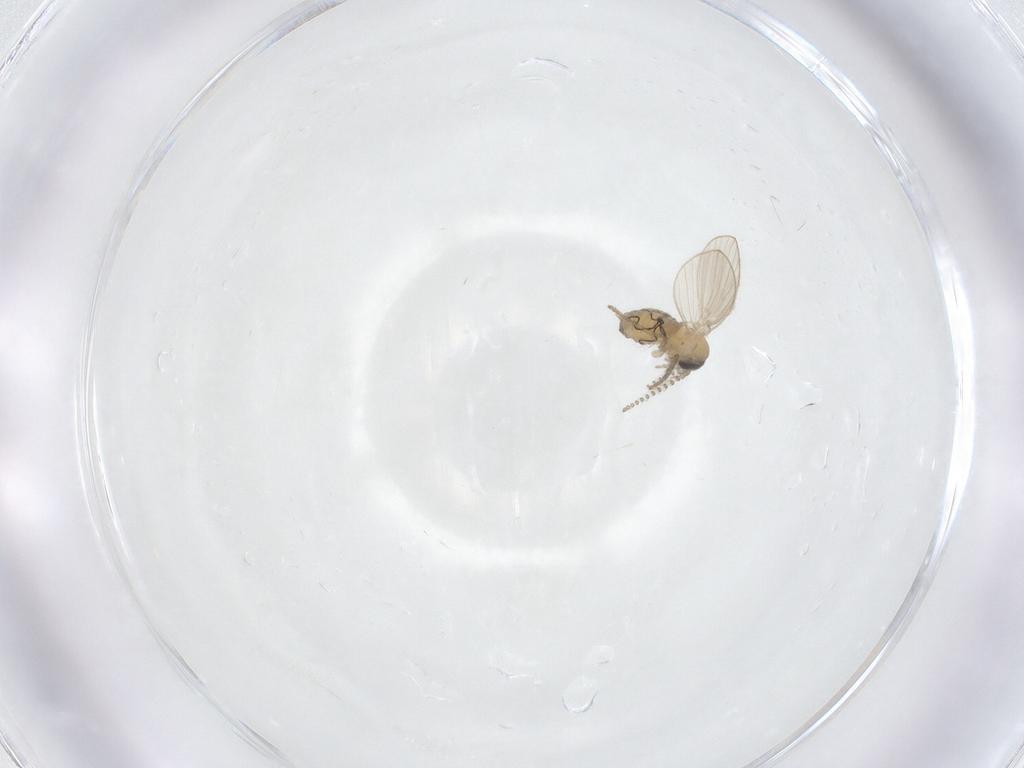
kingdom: Animalia
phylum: Arthropoda
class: Insecta
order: Diptera
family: Psychodidae
